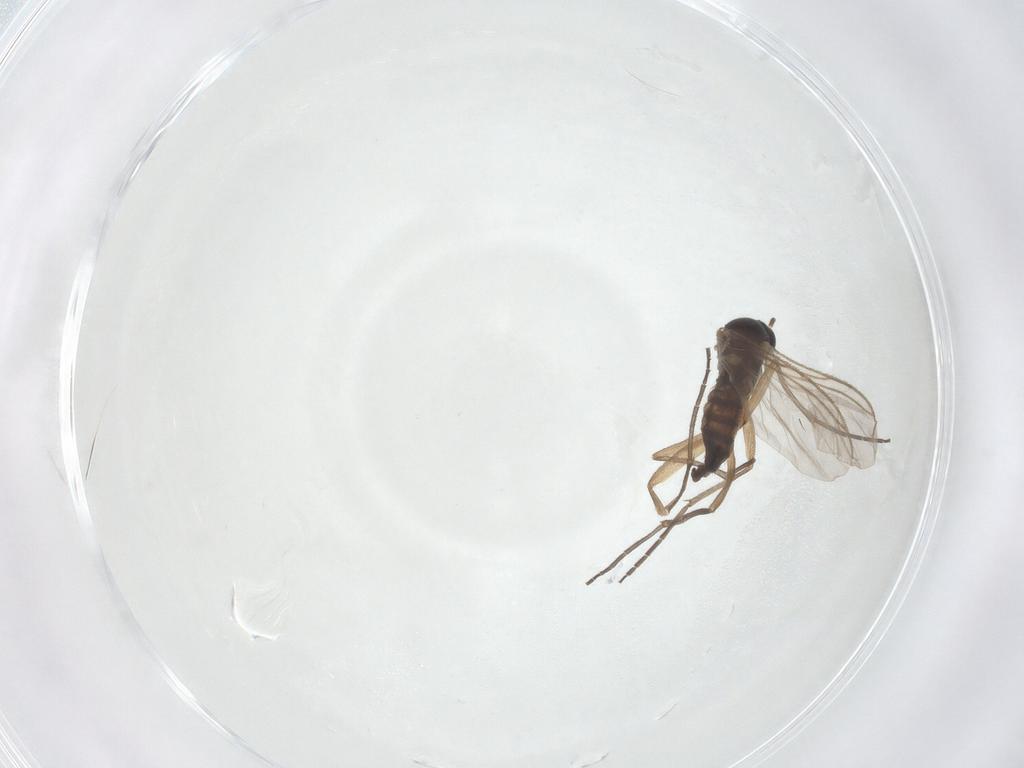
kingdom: Animalia
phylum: Arthropoda
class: Insecta
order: Diptera
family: Sciaridae
